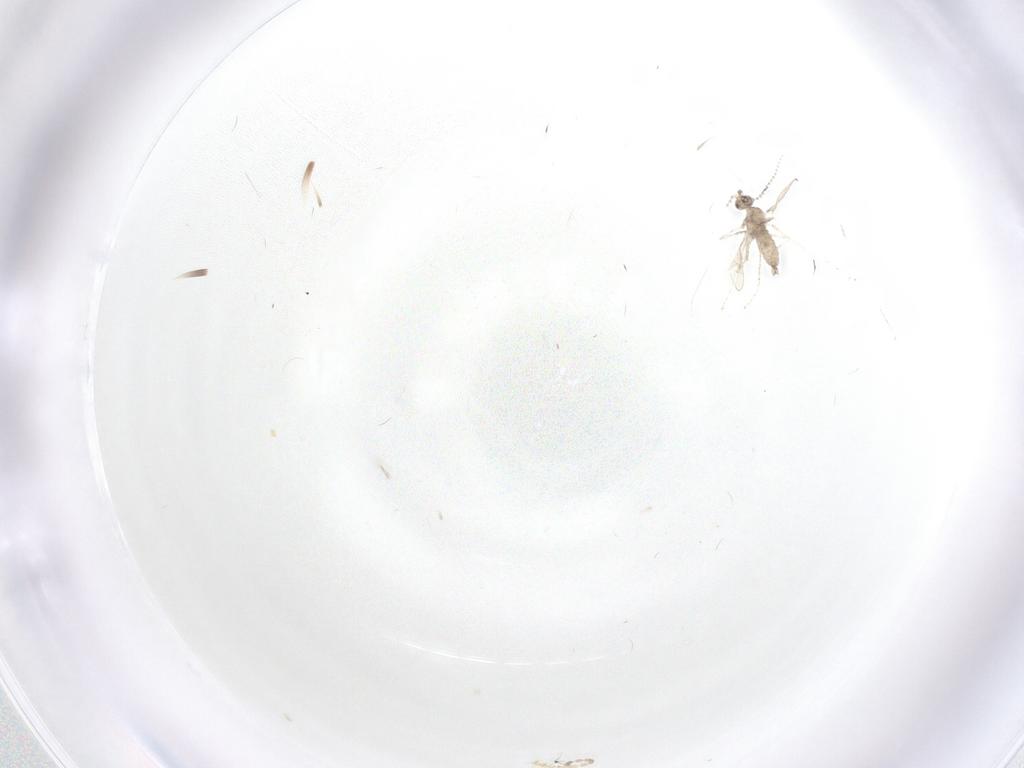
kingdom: Animalia
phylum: Arthropoda
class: Insecta
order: Diptera
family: Cecidomyiidae
